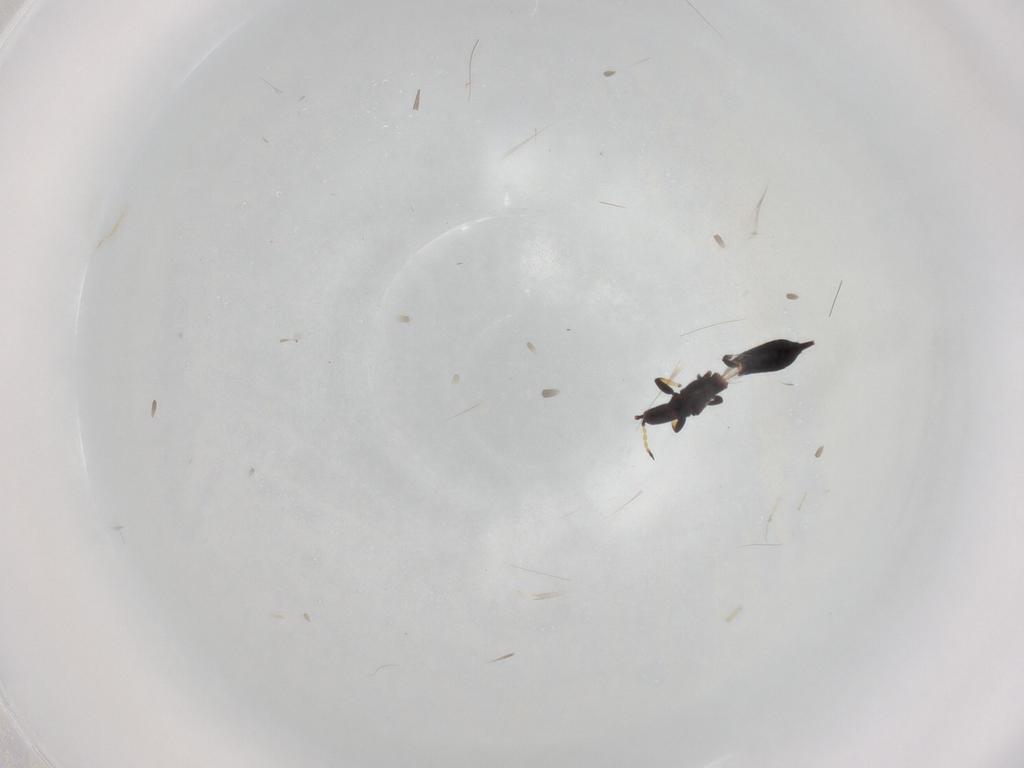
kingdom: Animalia
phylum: Arthropoda
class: Insecta
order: Thysanoptera
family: Phlaeothripidae
